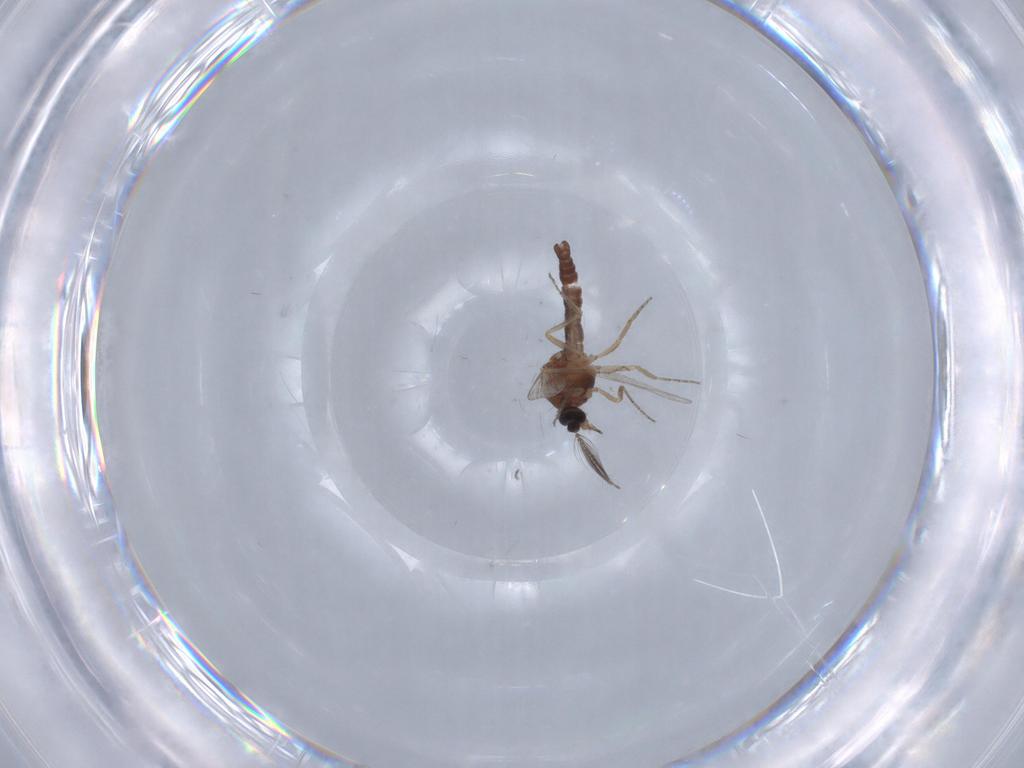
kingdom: Animalia
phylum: Arthropoda
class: Insecta
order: Diptera
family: Ceratopogonidae
